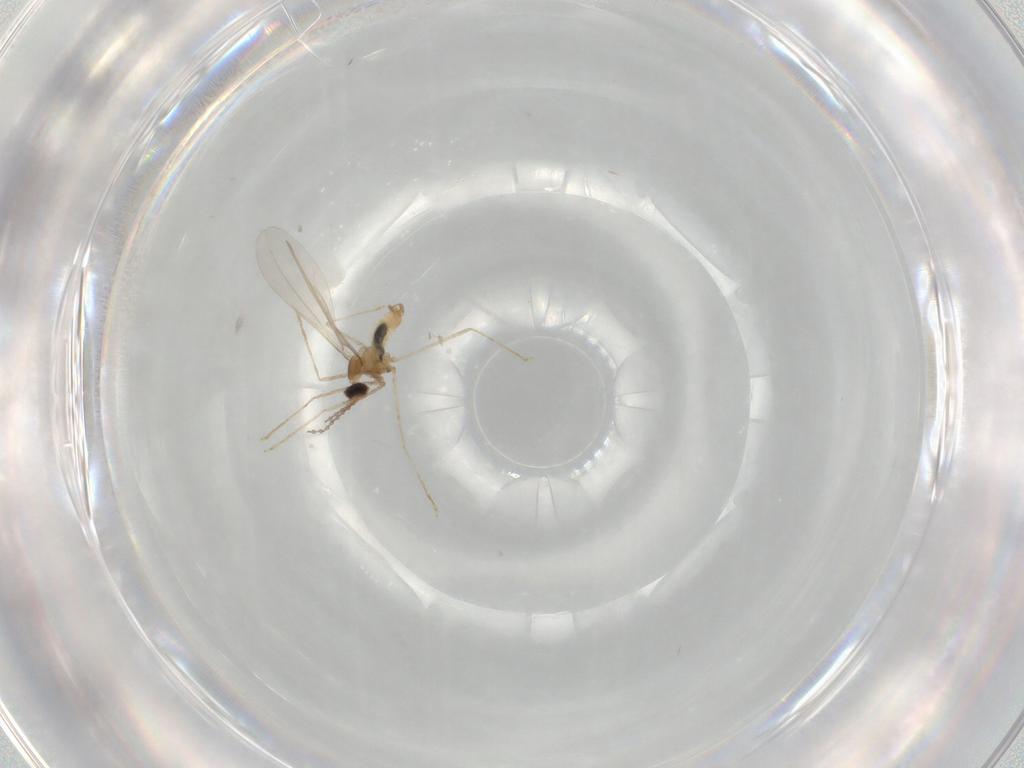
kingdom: Animalia
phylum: Arthropoda
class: Insecta
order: Diptera
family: Cecidomyiidae
